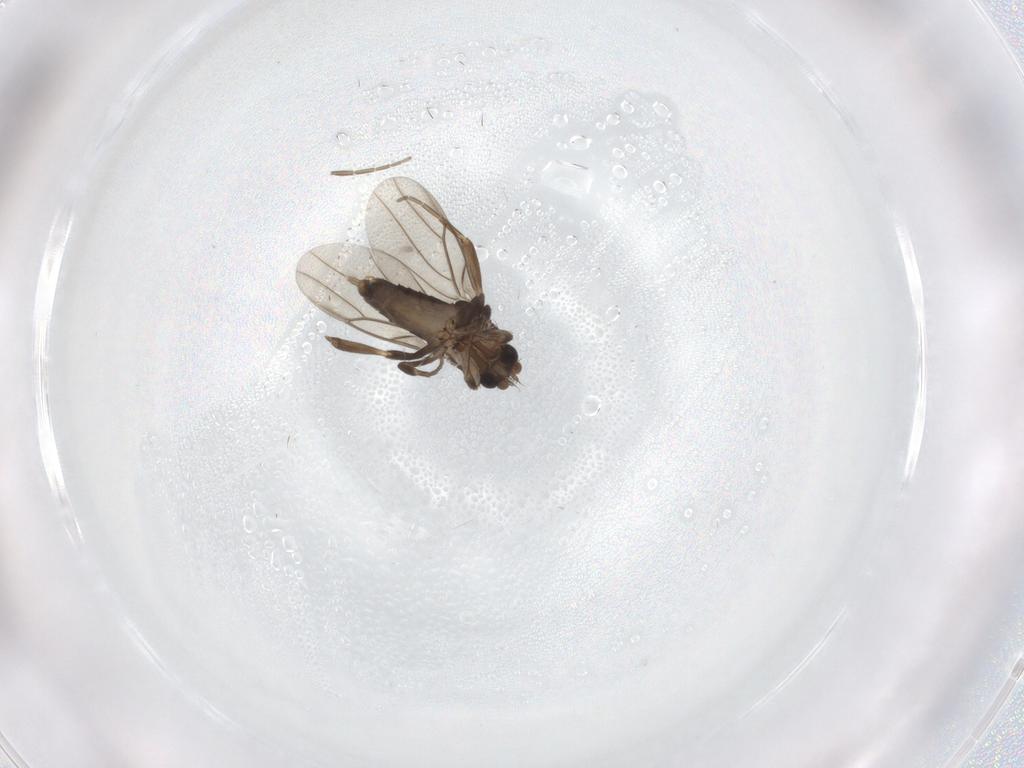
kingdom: Animalia
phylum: Arthropoda
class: Insecta
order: Diptera
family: Phoridae
